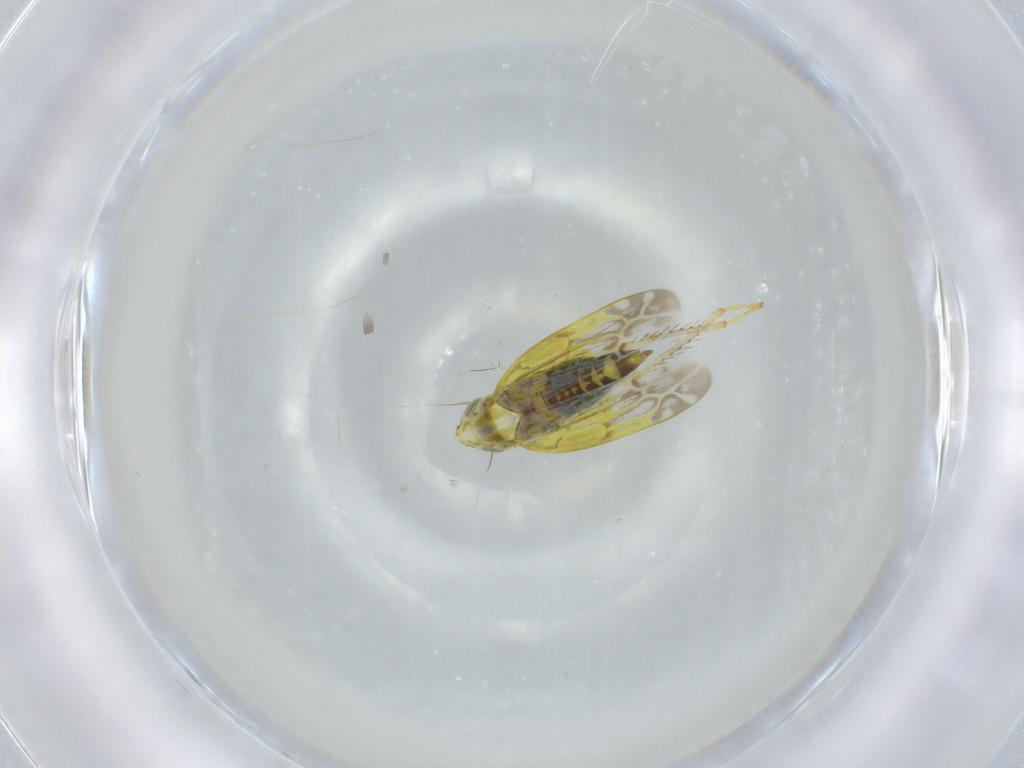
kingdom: Animalia
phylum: Arthropoda
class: Insecta
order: Hemiptera
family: Cicadellidae
